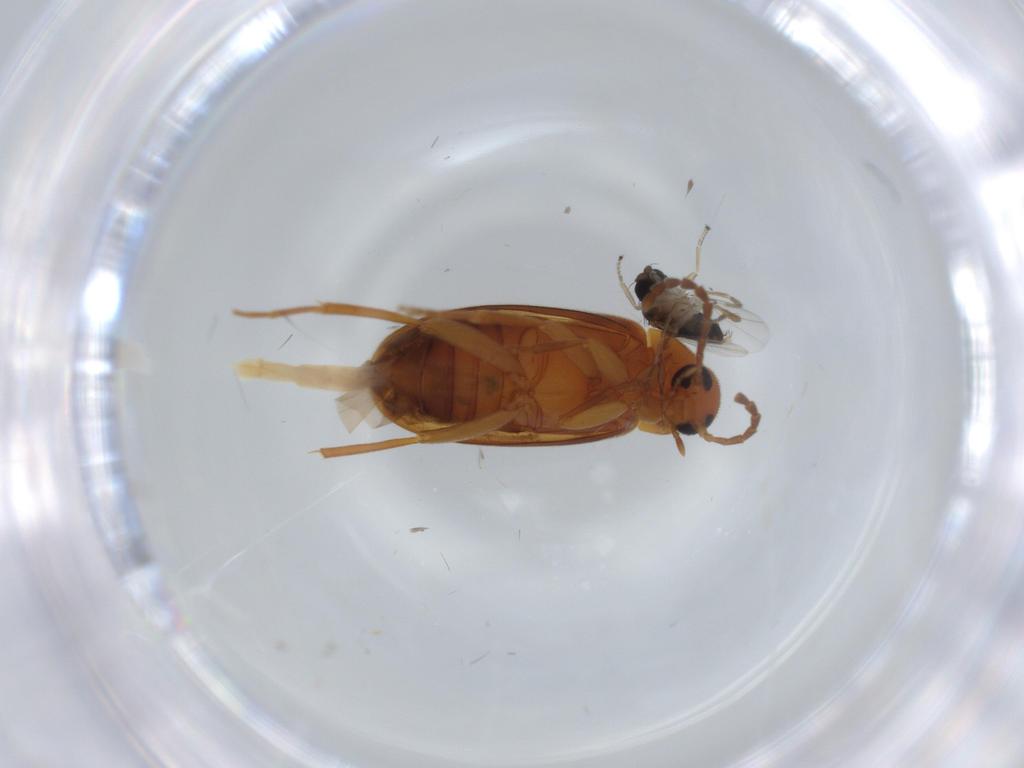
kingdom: Animalia
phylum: Arthropoda
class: Insecta
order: Coleoptera
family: Scraptiidae
